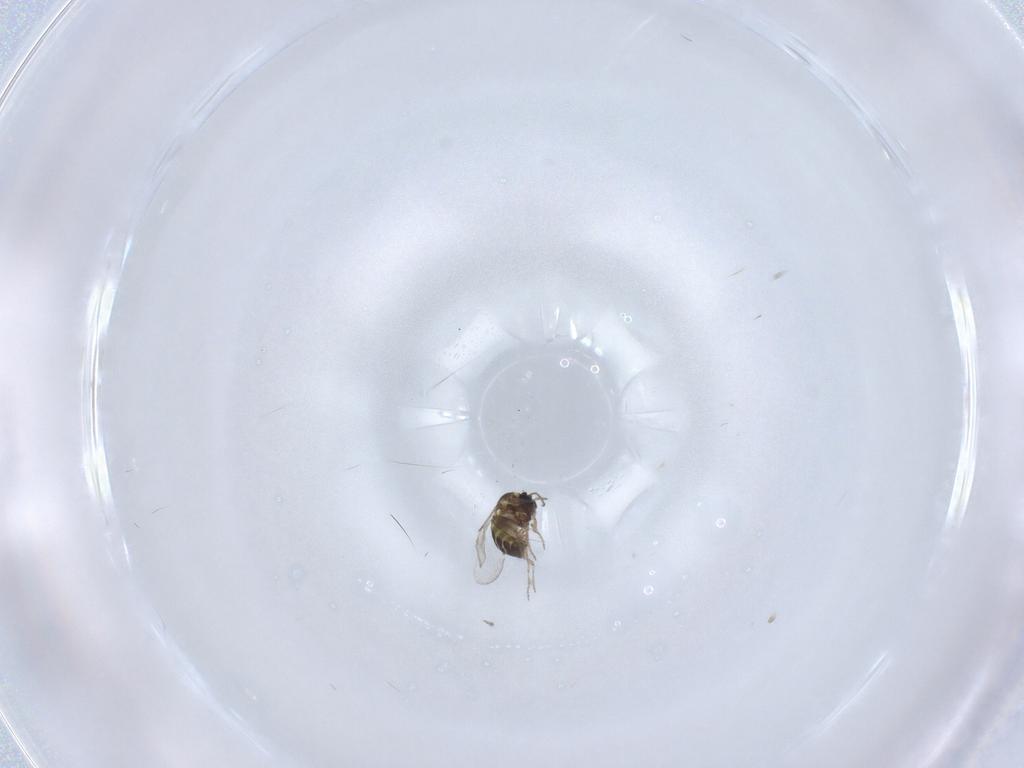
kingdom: Animalia
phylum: Arthropoda
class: Insecta
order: Diptera
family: Ceratopogonidae
